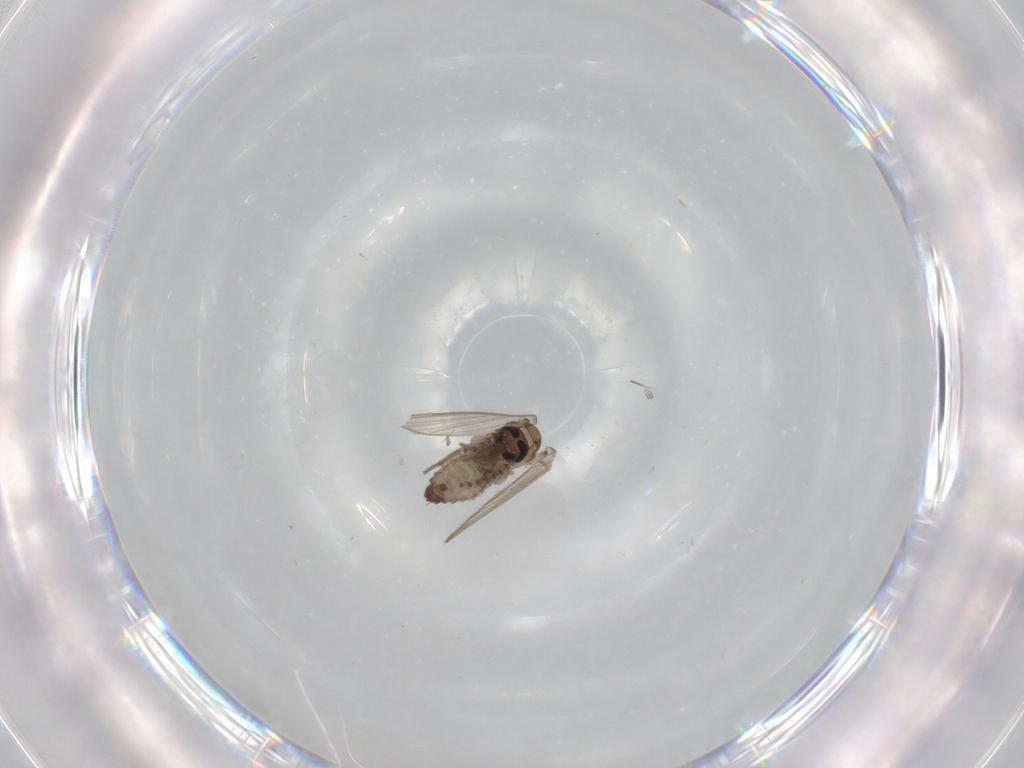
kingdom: Animalia
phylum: Arthropoda
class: Insecta
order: Diptera
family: Psychodidae
